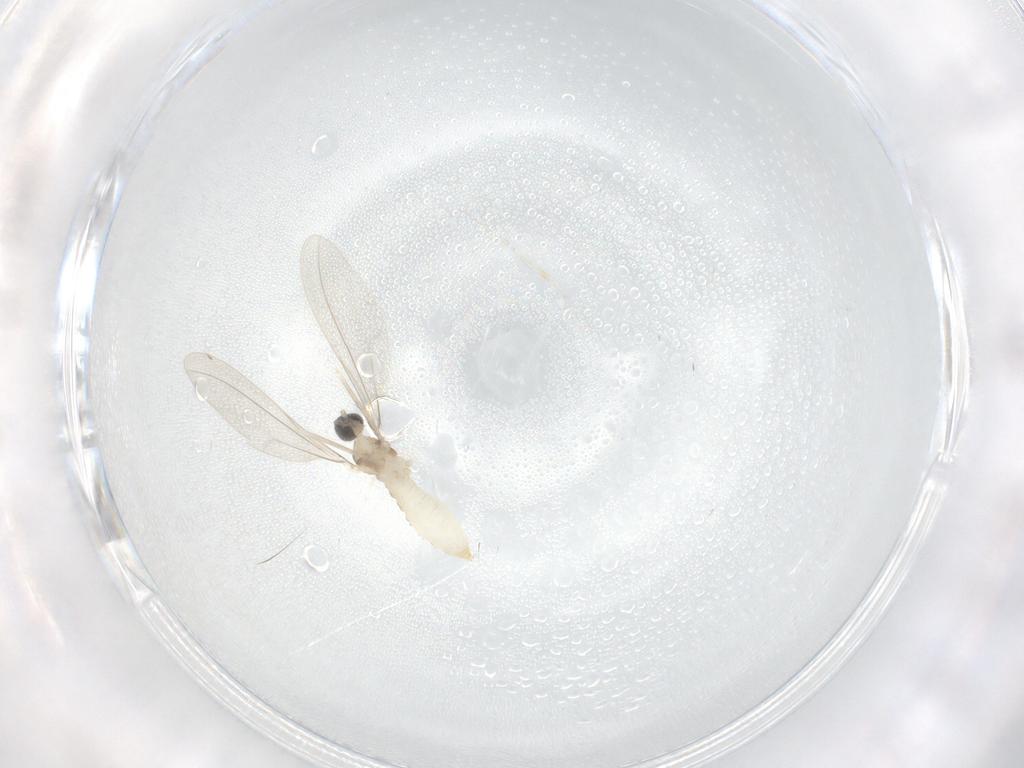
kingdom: Animalia
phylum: Arthropoda
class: Insecta
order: Diptera
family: Cecidomyiidae
